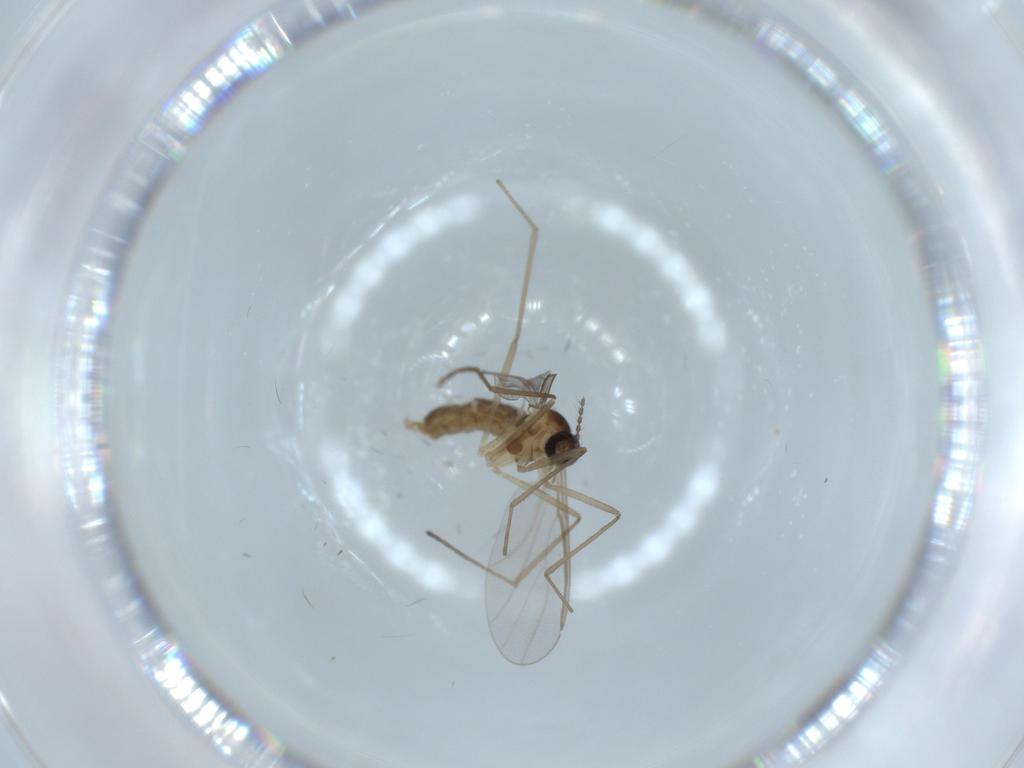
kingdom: Animalia
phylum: Arthropoda
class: Insecta
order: Diptera
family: Cecidomyiidae
